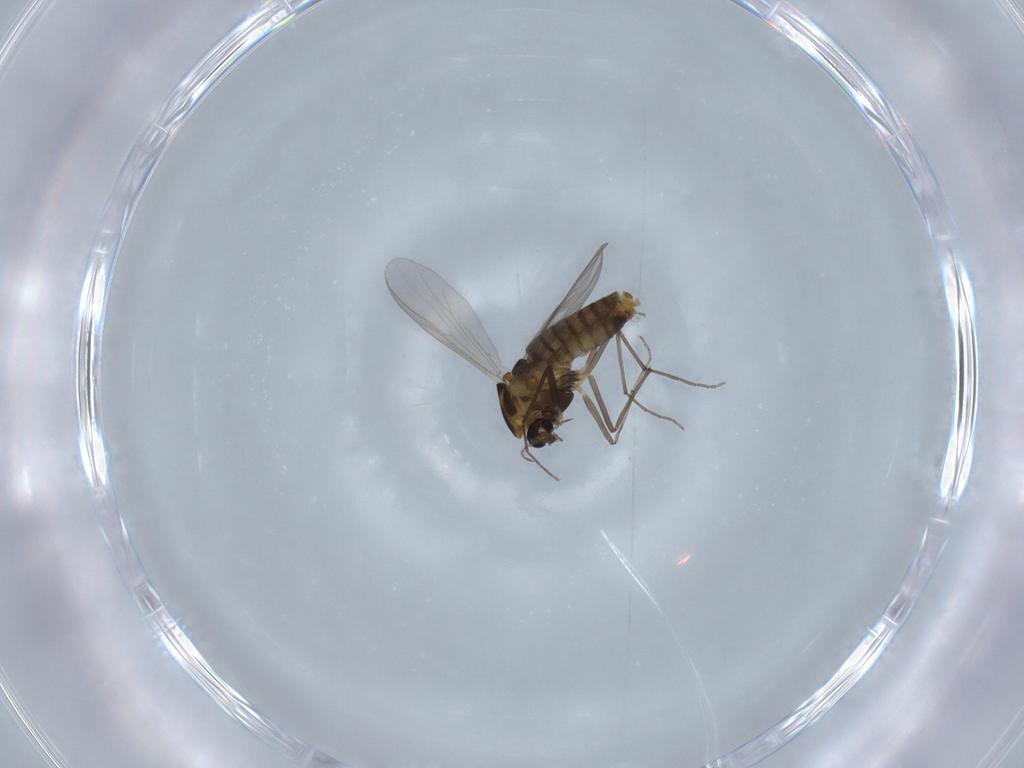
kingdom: Animalia
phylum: Arthropoda
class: Insecta
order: Diptera
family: Chironomidae
